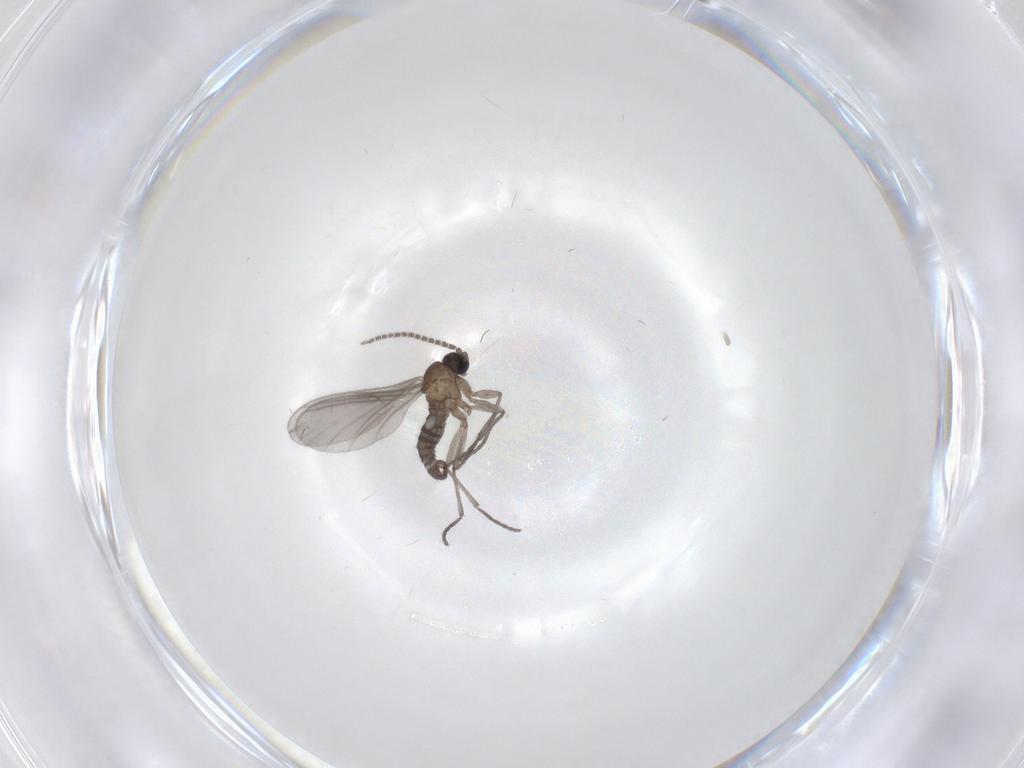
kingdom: Animalia
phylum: Arthropoda
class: Insecta
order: Diptera
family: Sciaridae
